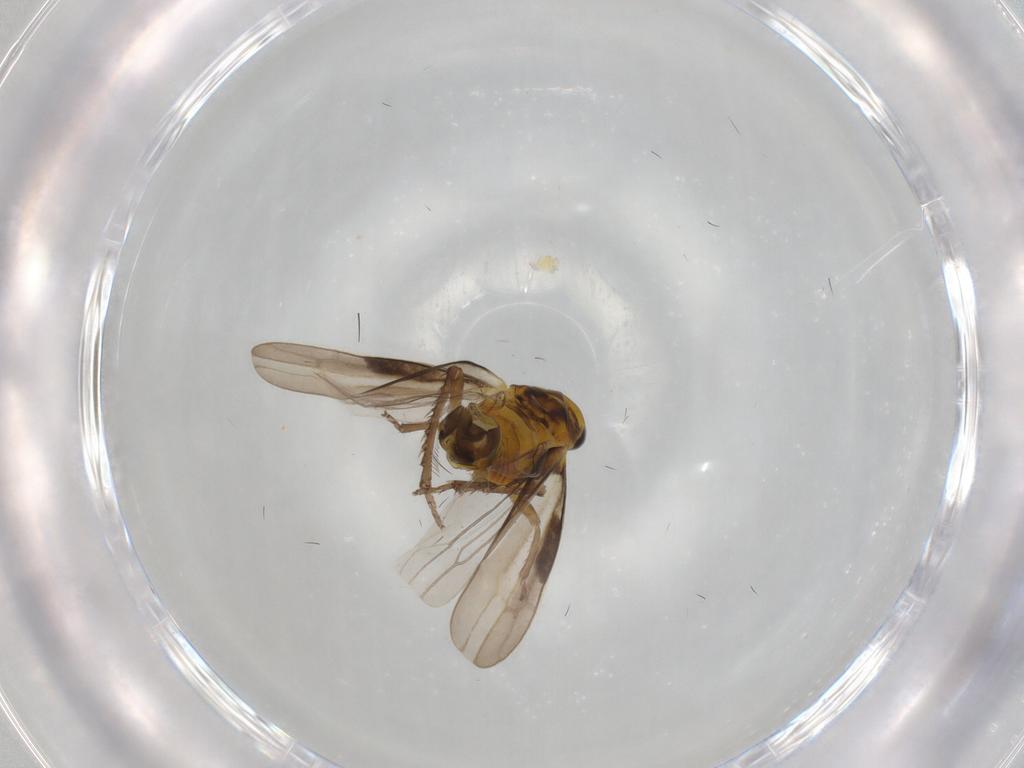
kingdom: Animalia
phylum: Arthropoda
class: Insecta
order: Hemiptera
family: Cicadellidae
